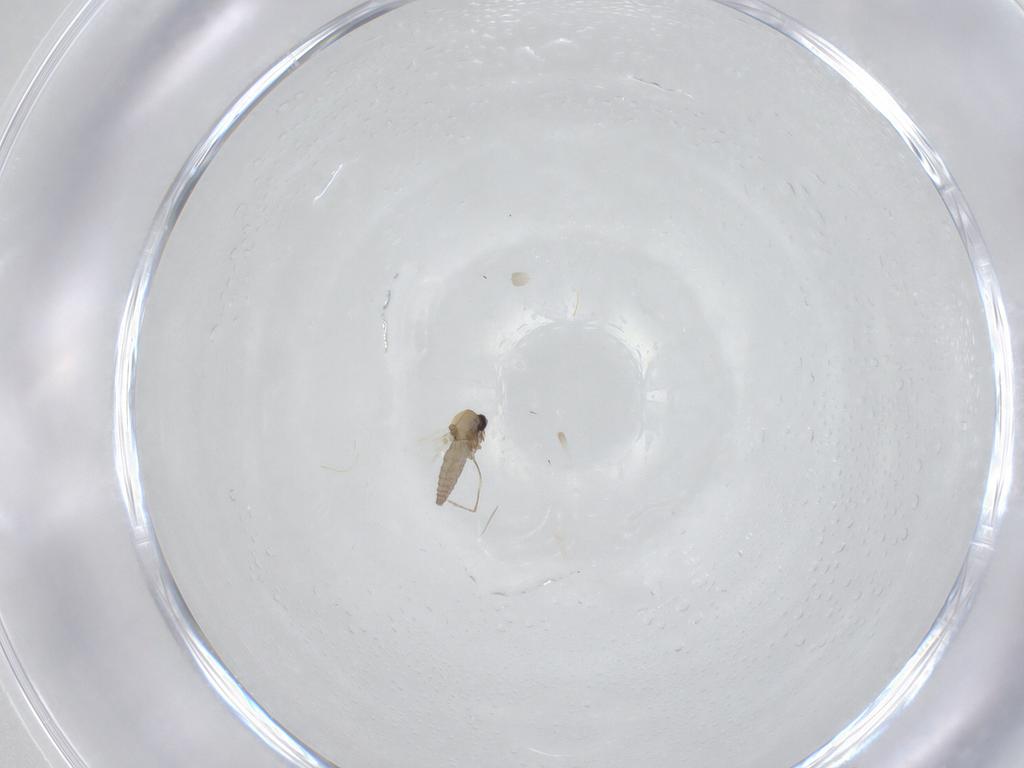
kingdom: Animalia
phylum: Arthropoda
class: Insecta
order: Diptera
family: Ceratopogonidae
